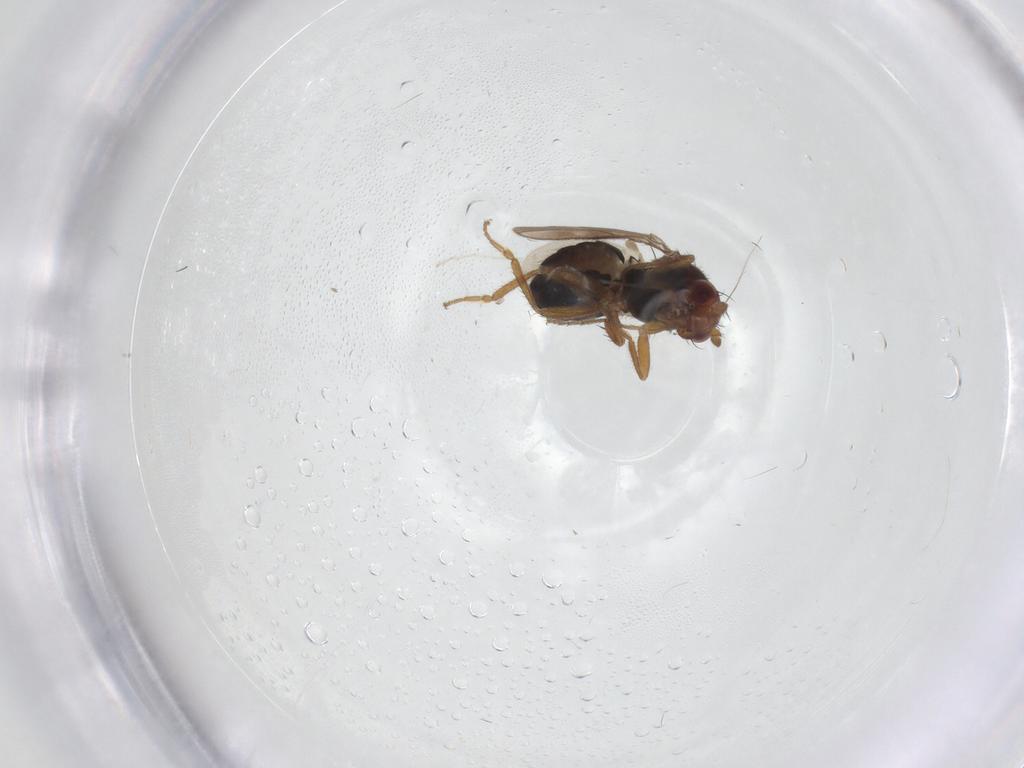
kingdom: Animalia
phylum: Arthropoda
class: Insecta
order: Diptera
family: Sphaeroceridae
